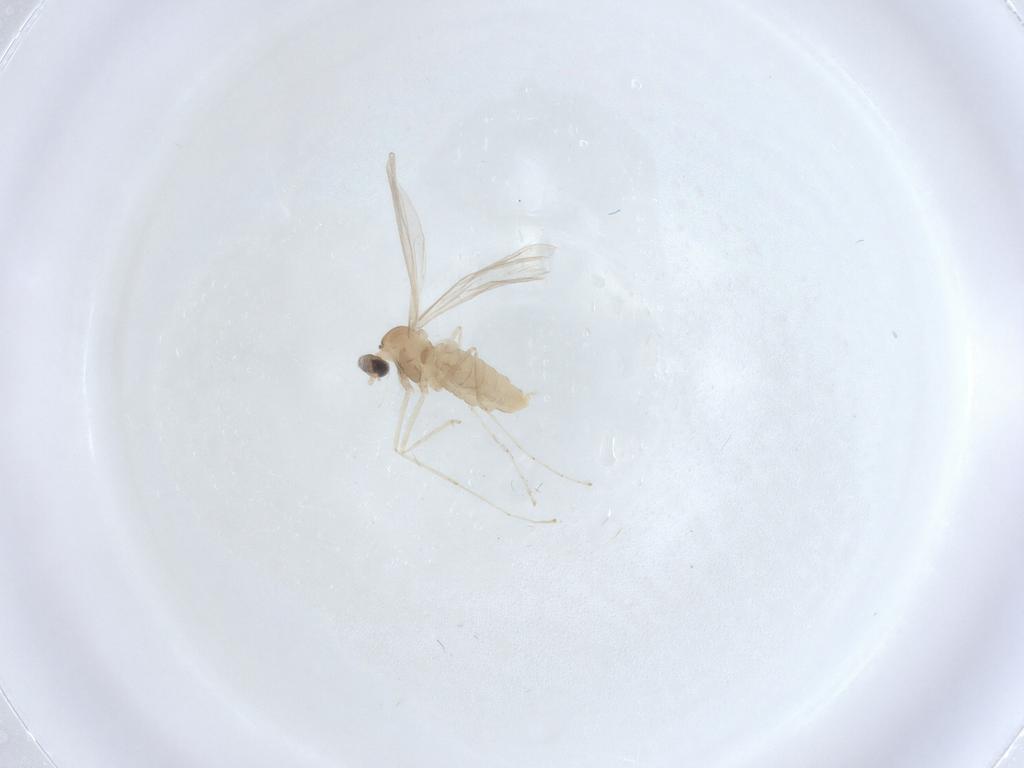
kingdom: Animalia
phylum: Arthropoda
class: Insecta
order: Diptera
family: Cecidomyiidae
